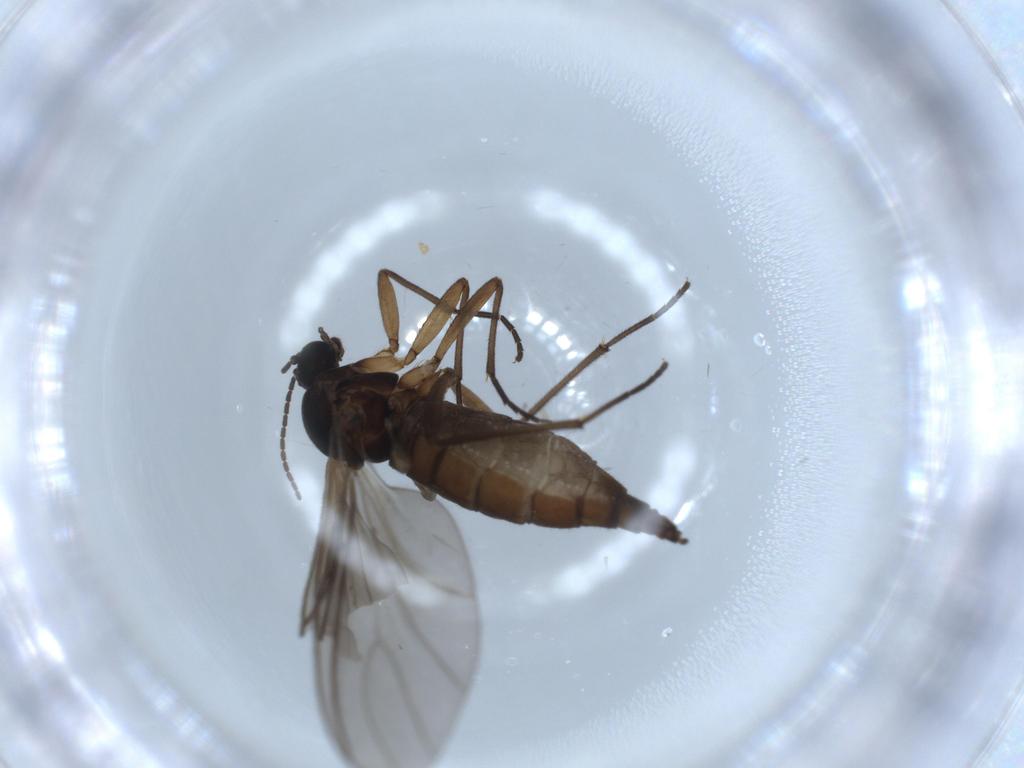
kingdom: Animalia
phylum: Arthropoda
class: Insecta
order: Diptera
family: Sciaridae
